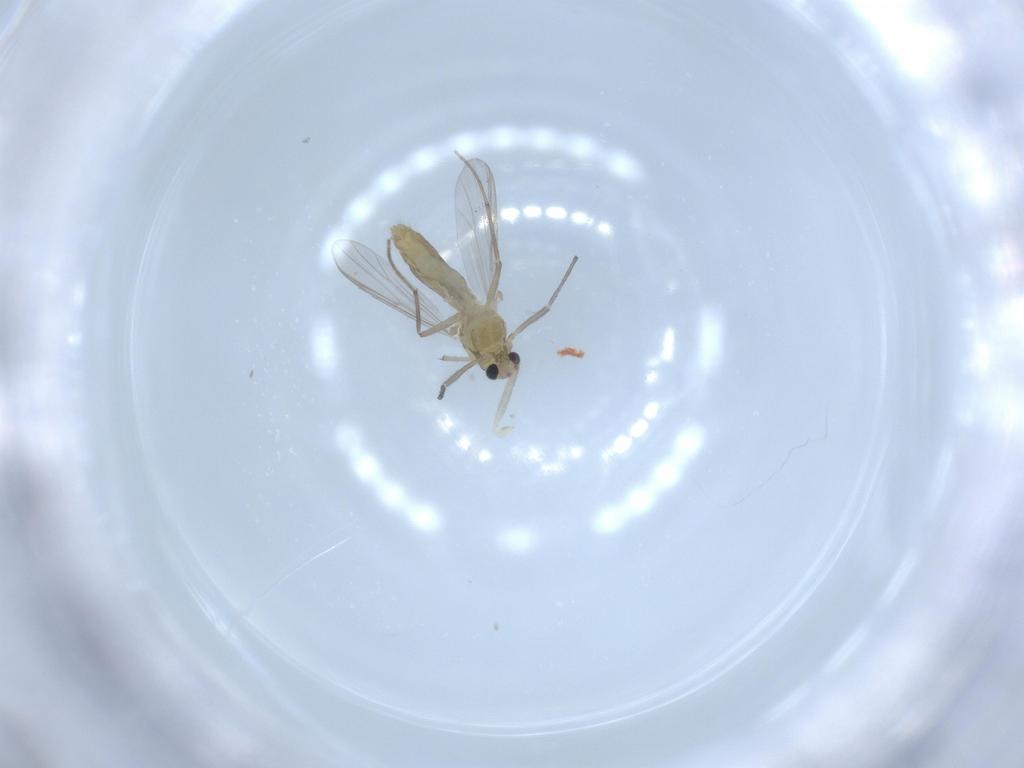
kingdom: Animalia
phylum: Arthropoda
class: Insecta
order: Diptera
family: Chironomidae
